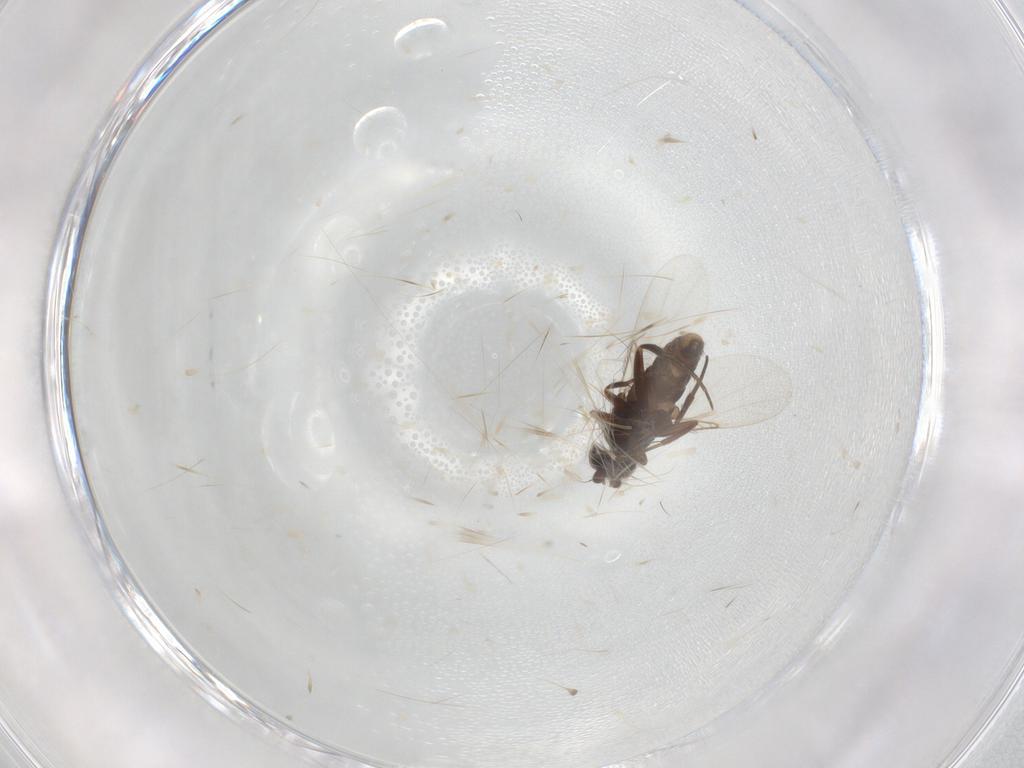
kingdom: Animalia
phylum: Arthropoda
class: Insecta
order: Diptera
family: Tachinidae
